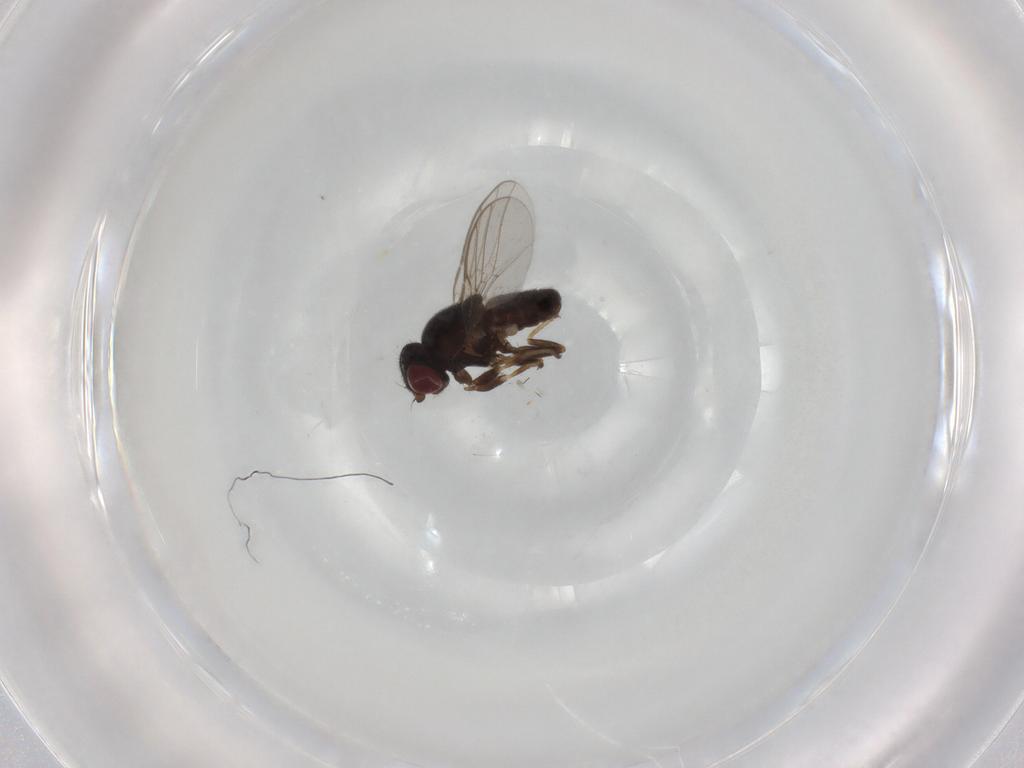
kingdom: Animalia
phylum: Arthropoda
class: Insecta
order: Diptera
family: Chloropidae
